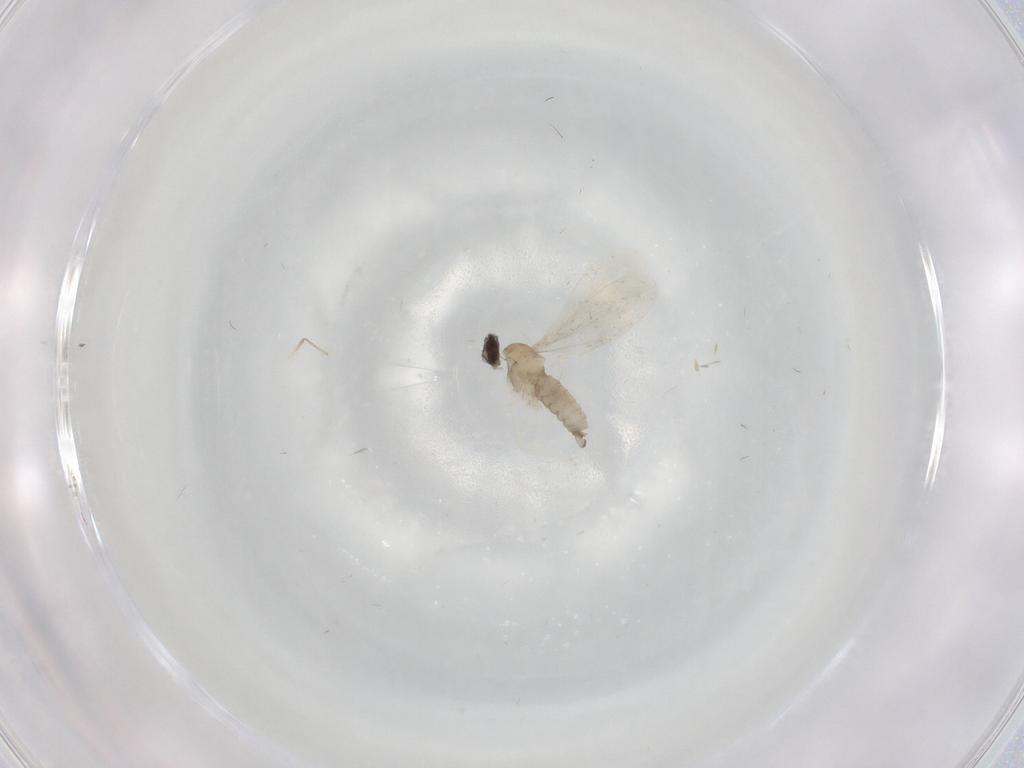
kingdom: Animalia
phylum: Arthropoda
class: Insecta
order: Diptera
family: Cecidomyiidae
